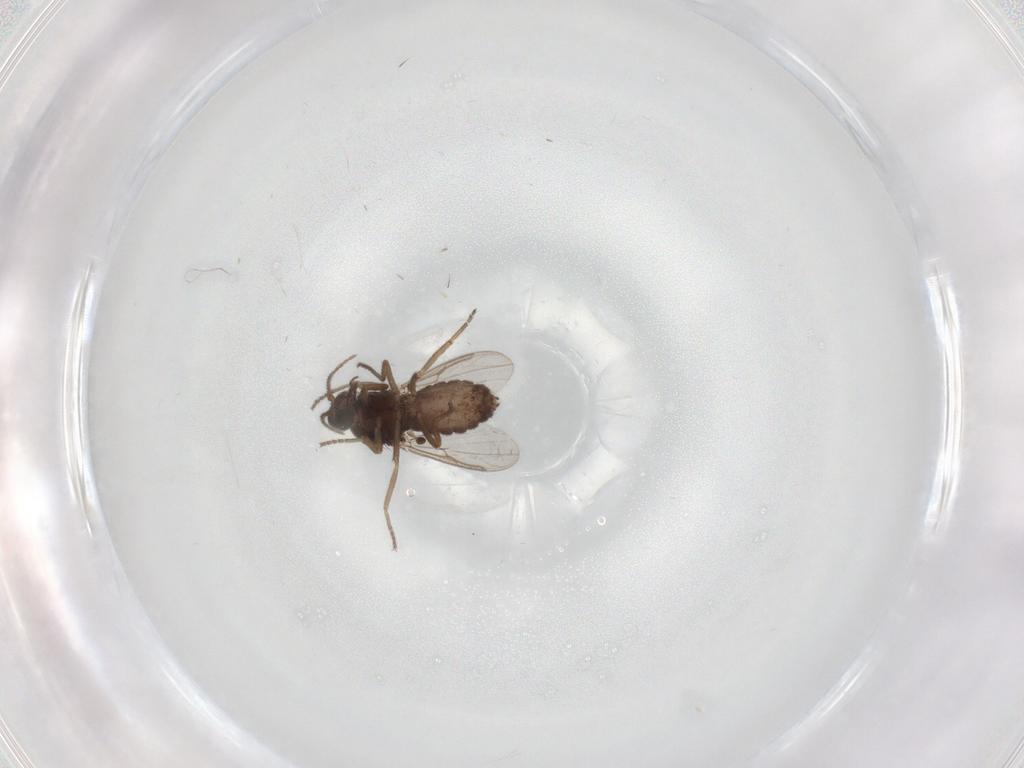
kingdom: Animalia
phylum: Arthropoda
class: Insecta
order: Diptera
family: Ceratopogonidae
